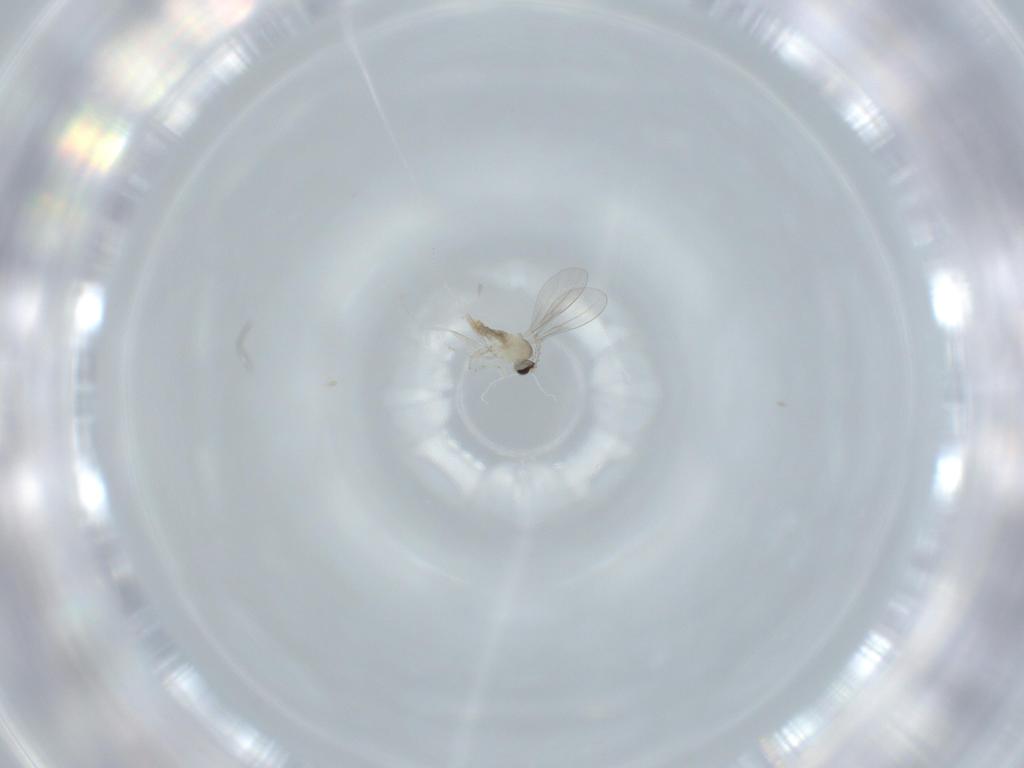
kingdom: Animalia
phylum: Arthropoda
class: Insecta
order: Diptera
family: Cecidomyiidae
